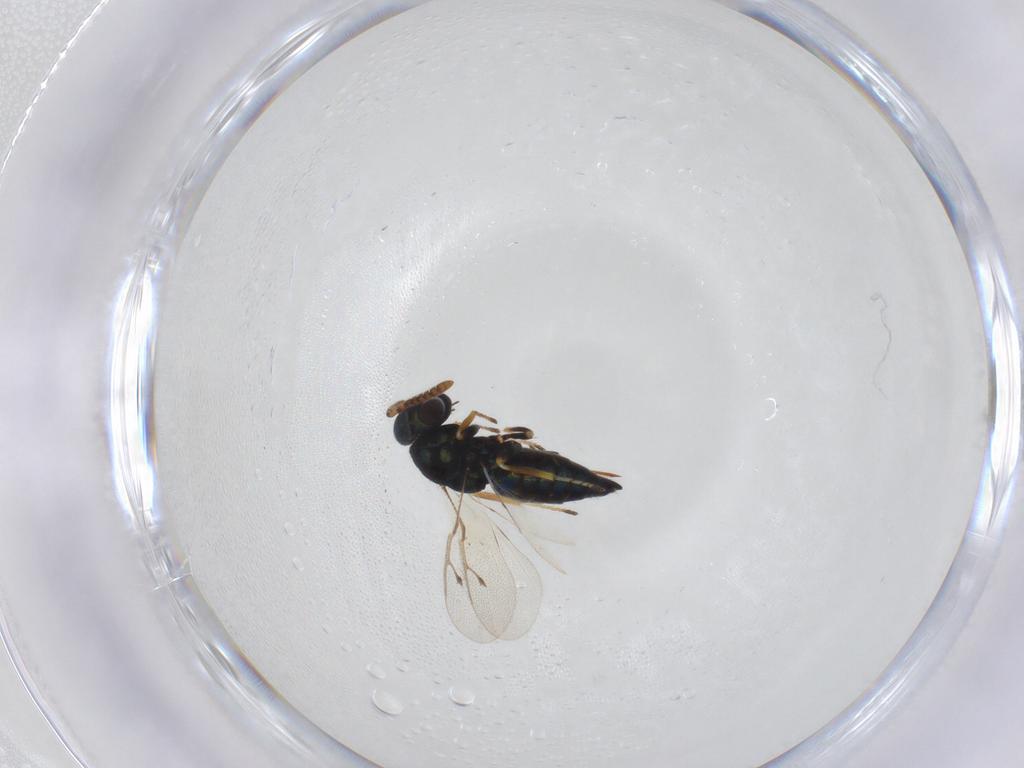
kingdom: Animalia
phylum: Arthropoda
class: Insecta
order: Hymenoptera
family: Pteromalidae
